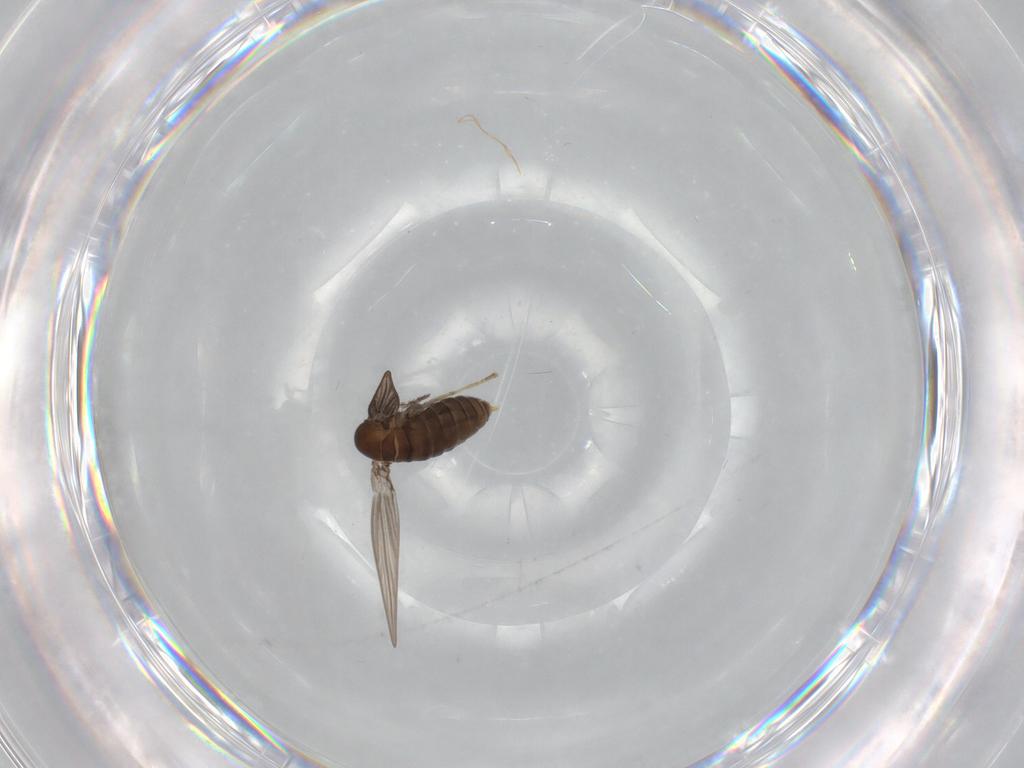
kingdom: Animalia
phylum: Arthropoda
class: Insecta
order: Diptera
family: Psychodidae
